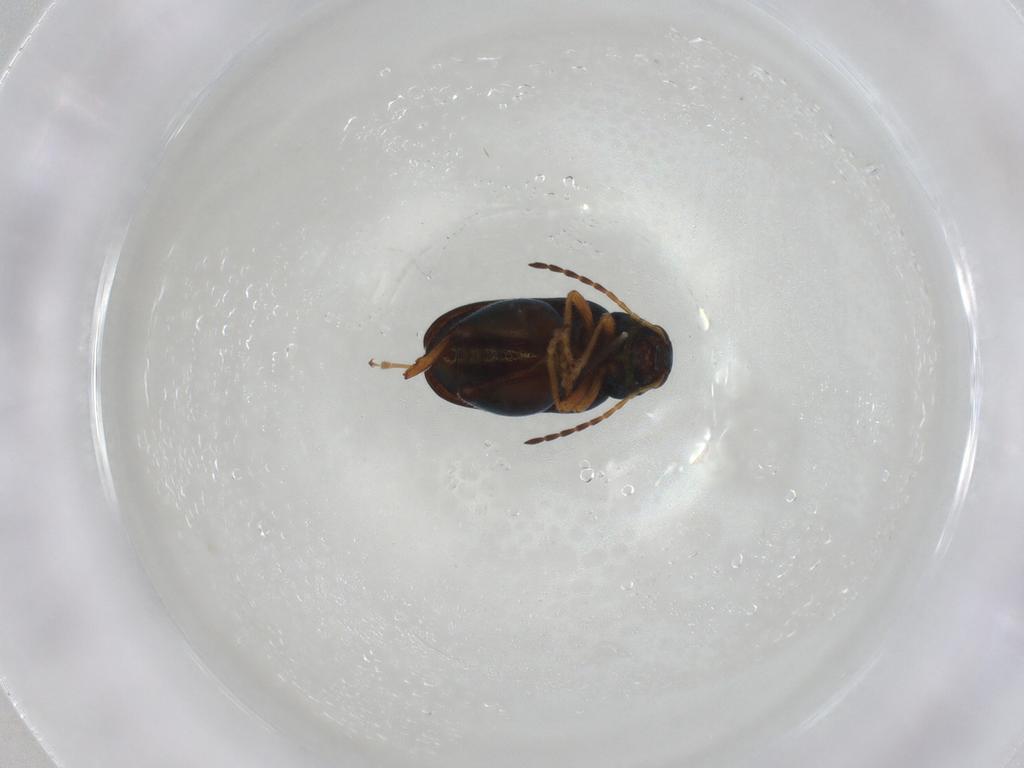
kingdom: Animalia
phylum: Arthropoda
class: Insecta
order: Coleoptera
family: Chrysomelidae
